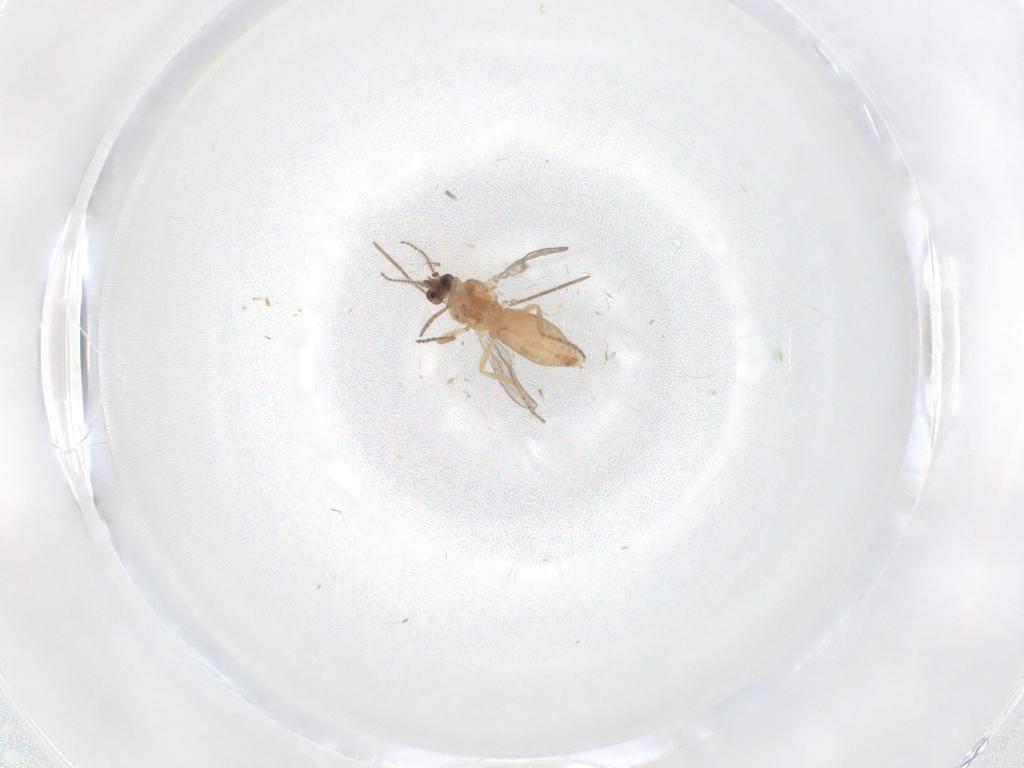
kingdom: Animalia
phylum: Arthropoda
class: Insecta
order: Diptera
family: Ceratopogonidae
